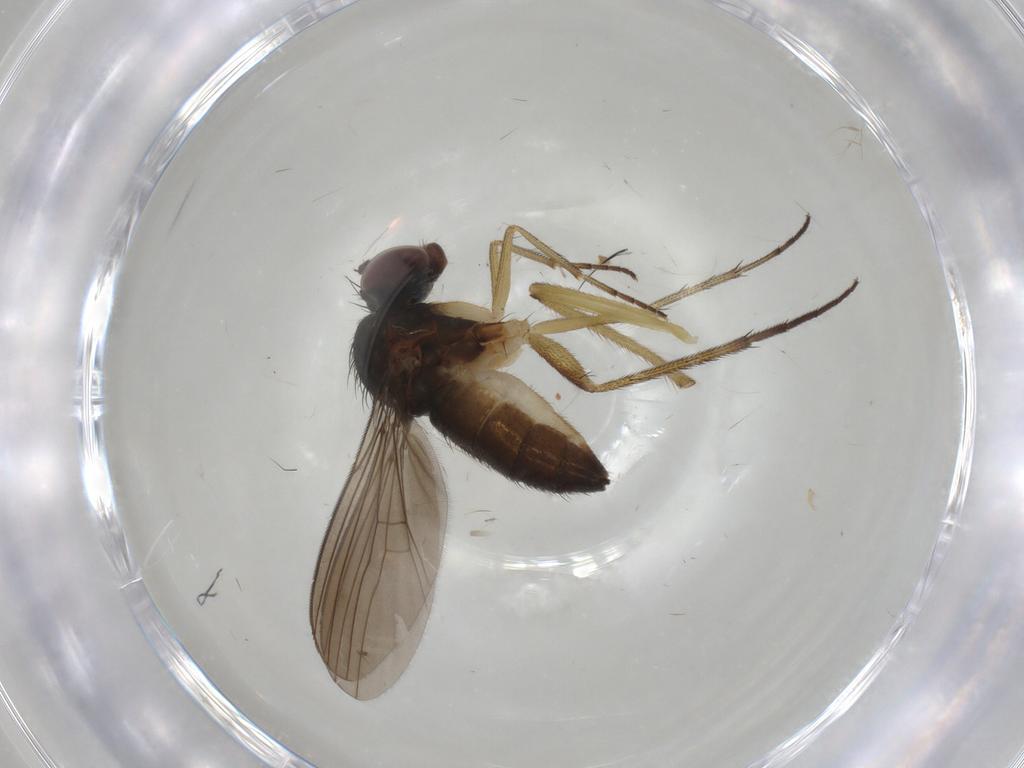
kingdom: Animalia
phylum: Arthropoda
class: Insecta
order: Diptera
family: Dolichopodidae
